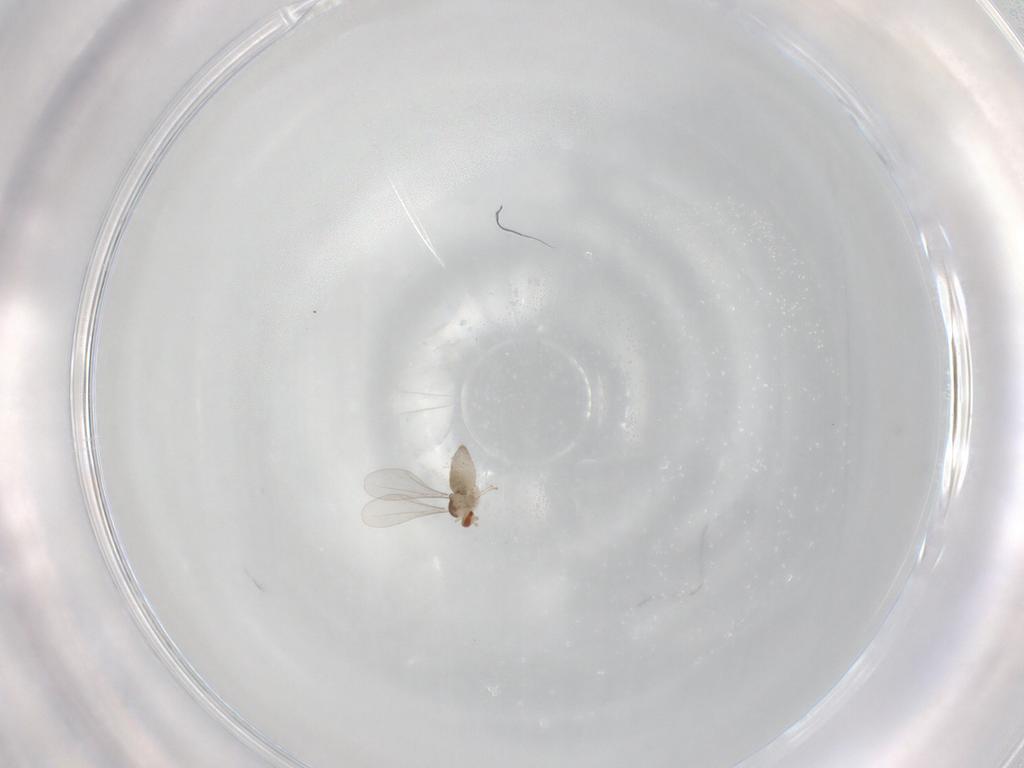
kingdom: Animalia
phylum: Arthropoda
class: Insecta
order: Diptera
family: Cecidomyiidae
